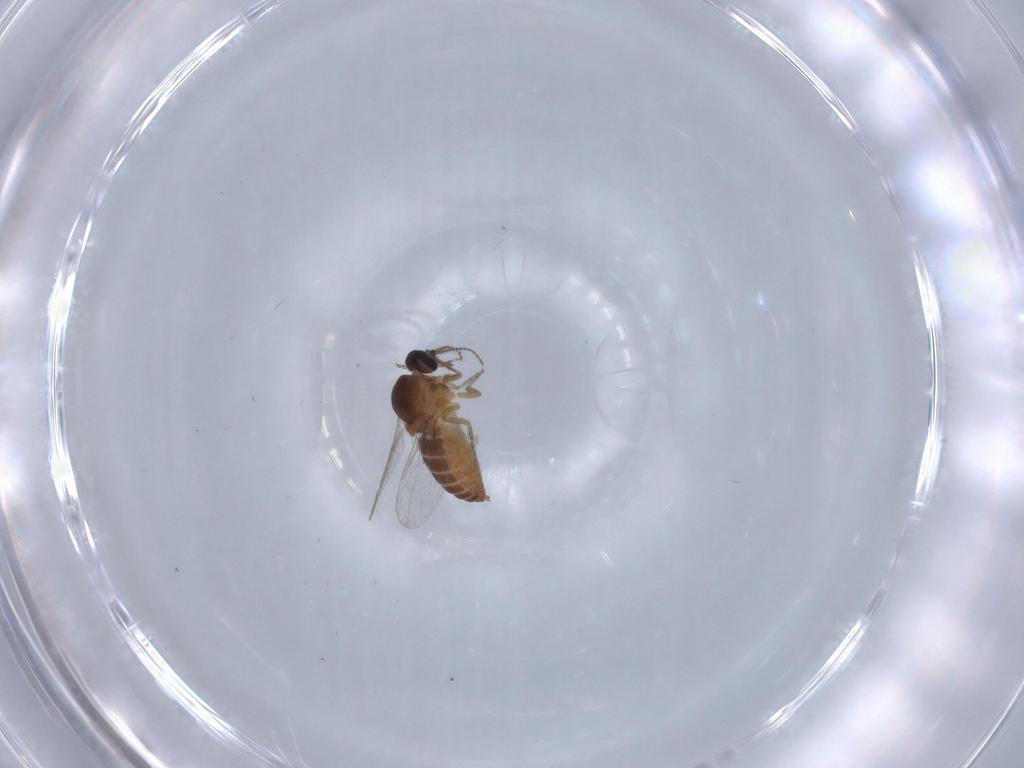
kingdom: Animalia
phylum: Arthropoda
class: Insecta
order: Diptera
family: Ceratopogonidae
